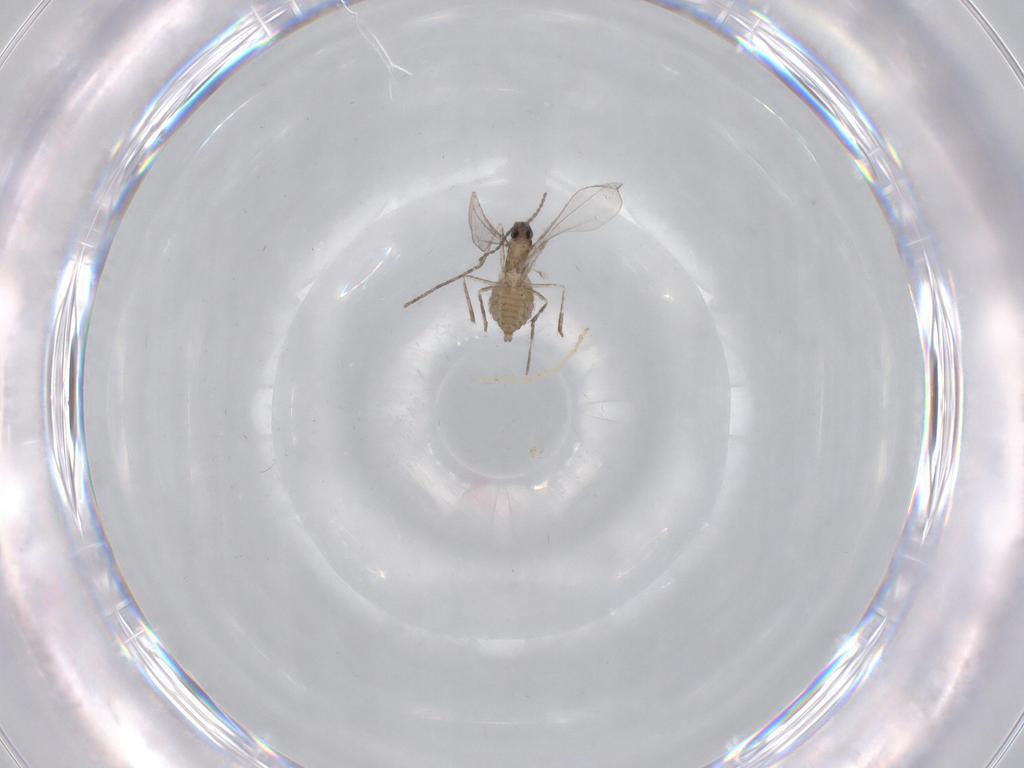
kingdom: Animalia
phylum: Arthropoda
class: Insecta
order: Diptera
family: Cecidomyiidae
